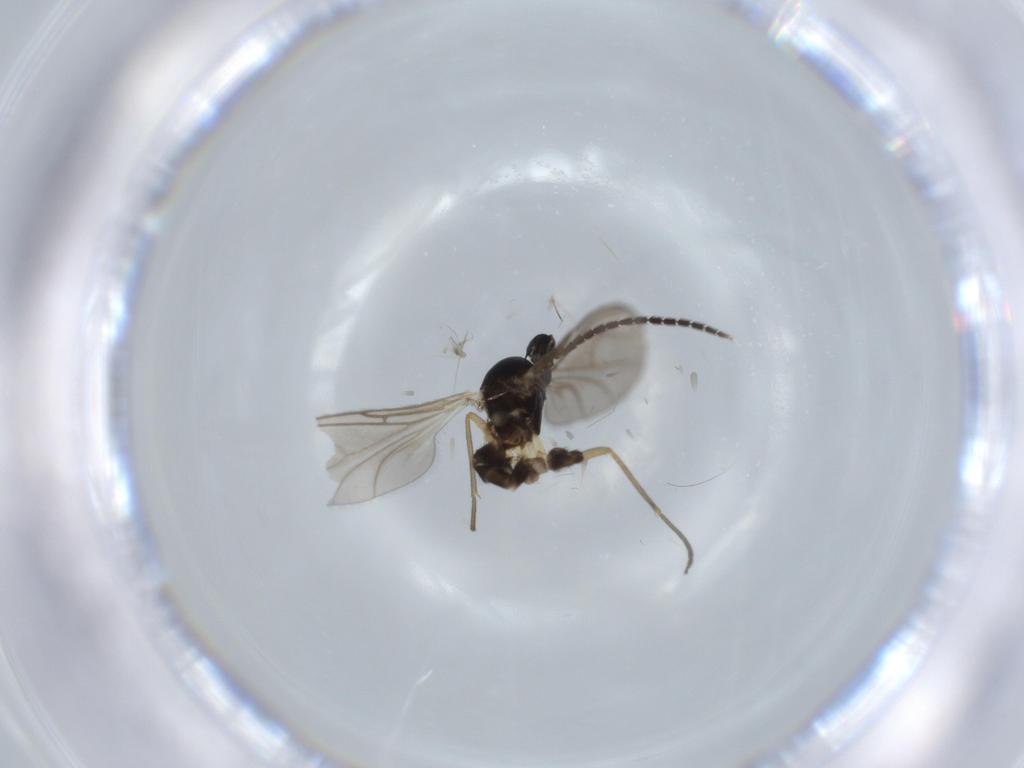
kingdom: Animalia
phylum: Arthropoda
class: Insecta
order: Diptera
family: Sciaridae
